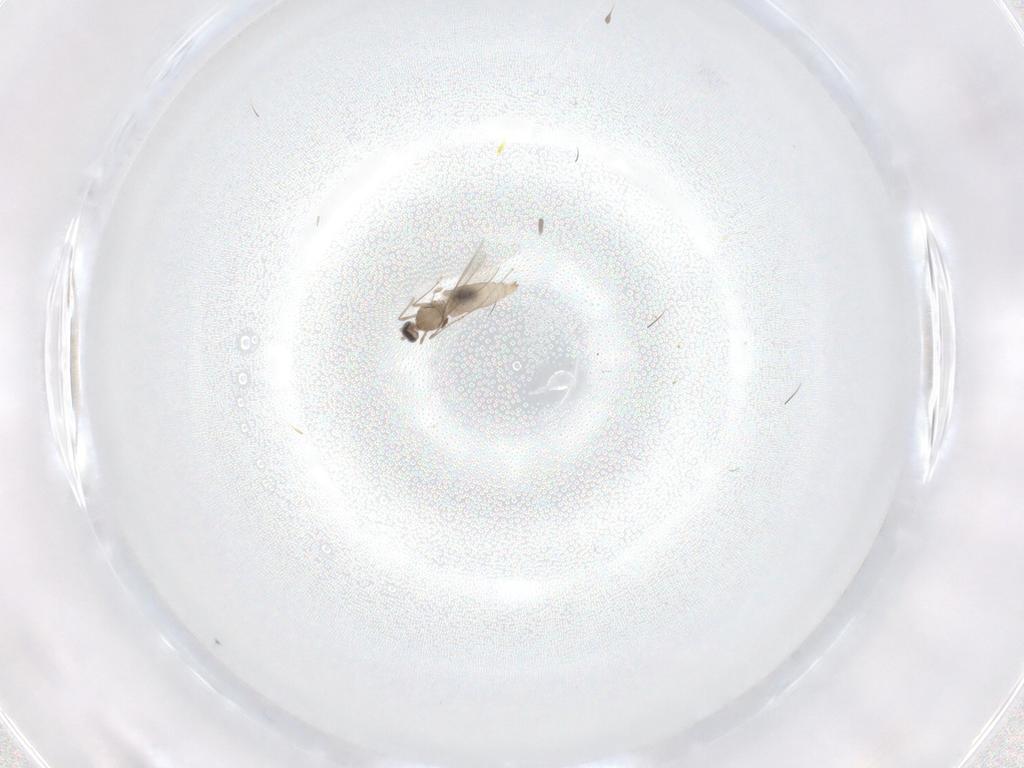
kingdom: Animalia
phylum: Arthropoda
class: Insecta
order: Diptera
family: Cecidomyiidae
